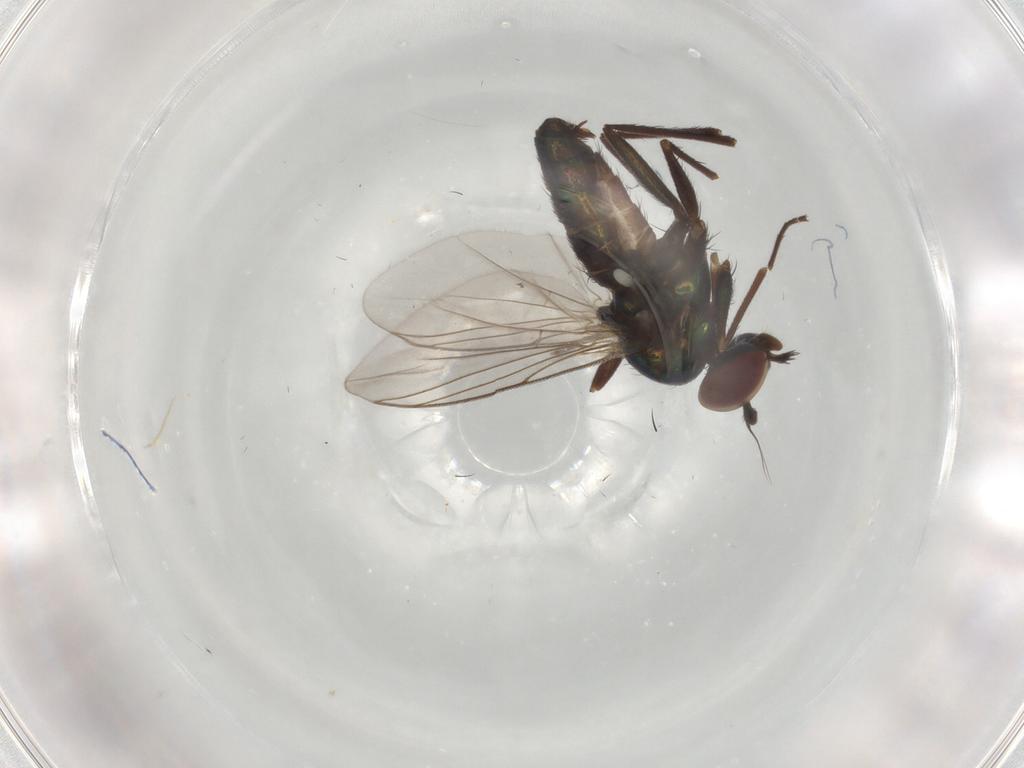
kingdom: Animalia
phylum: Arthropoda
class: Insecta
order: Diptera
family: Dolichopodidae
